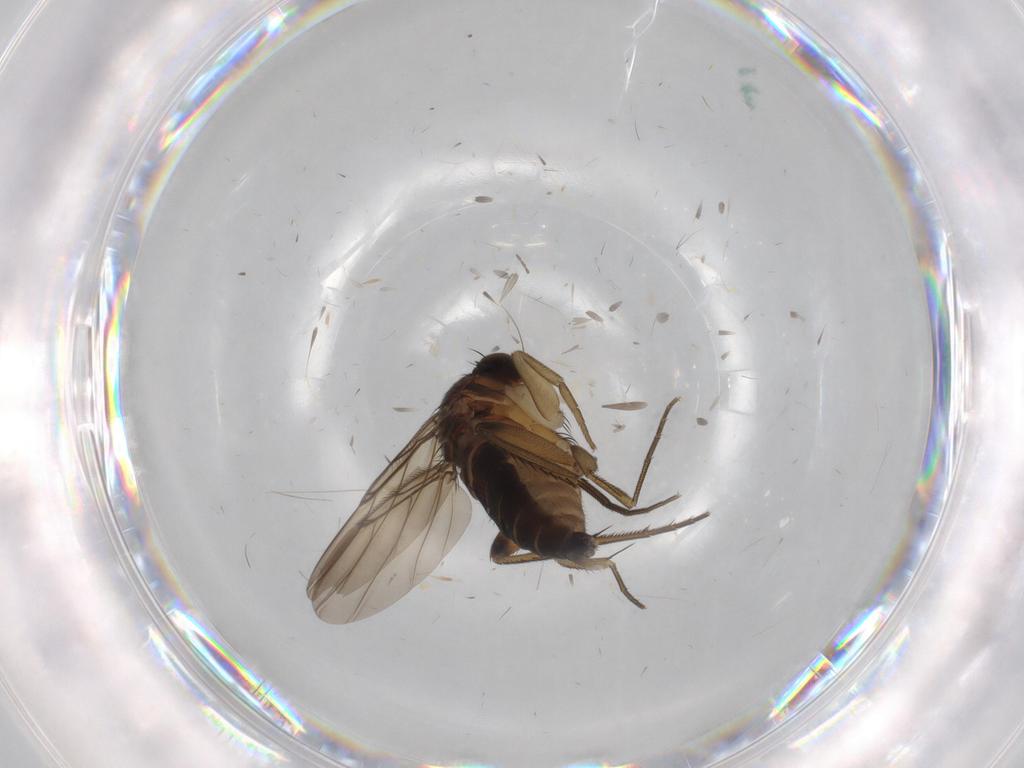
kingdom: Animalia
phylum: Arthropoda
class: Insecta
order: Diptera
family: Phoridae
